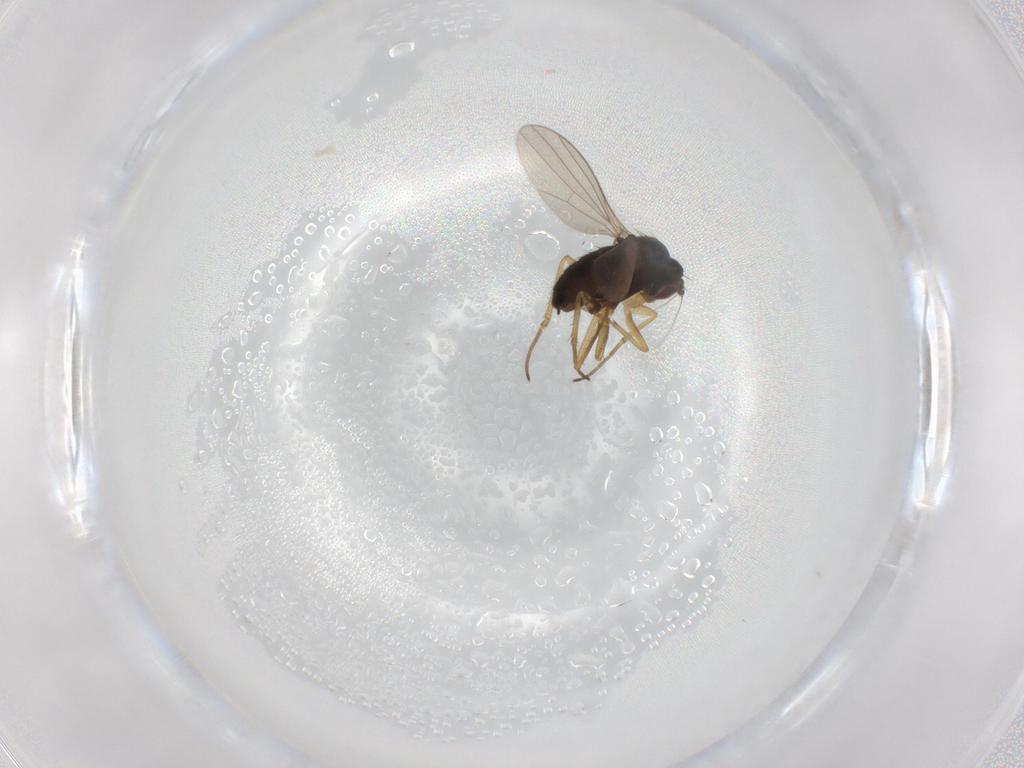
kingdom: Animalia
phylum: Arthropoda
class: Insecta
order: Diptera
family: Dolichopodidae
